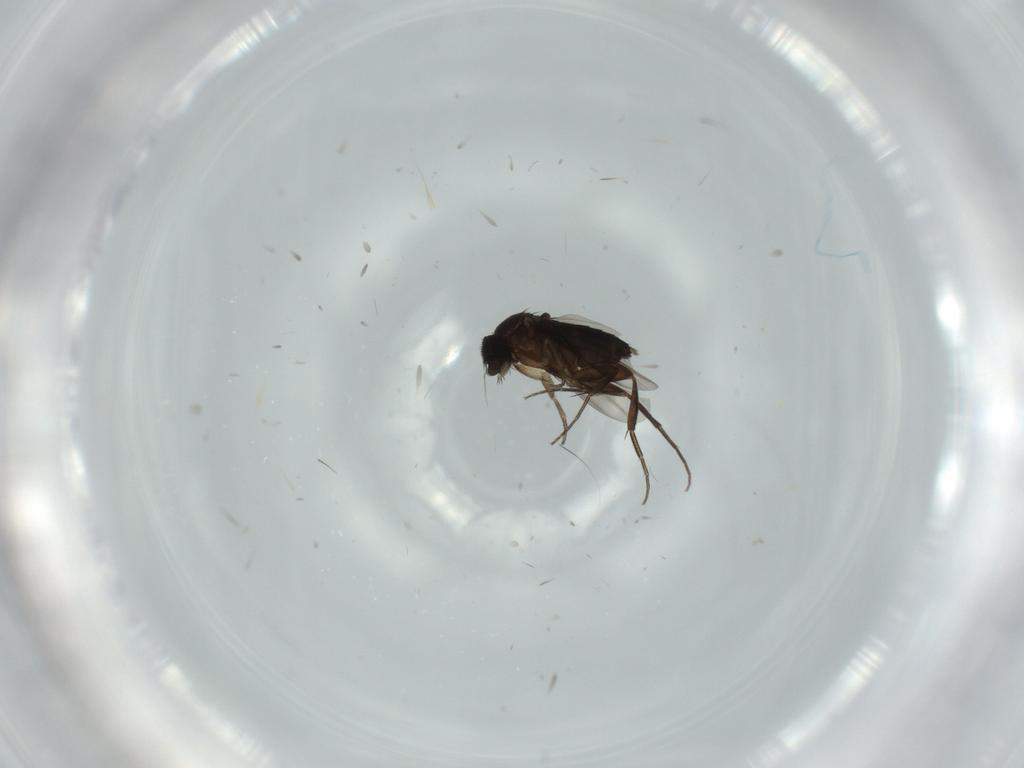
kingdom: Animalia
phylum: Arthropoda
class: Insecta
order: Diptera
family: Phoridae
